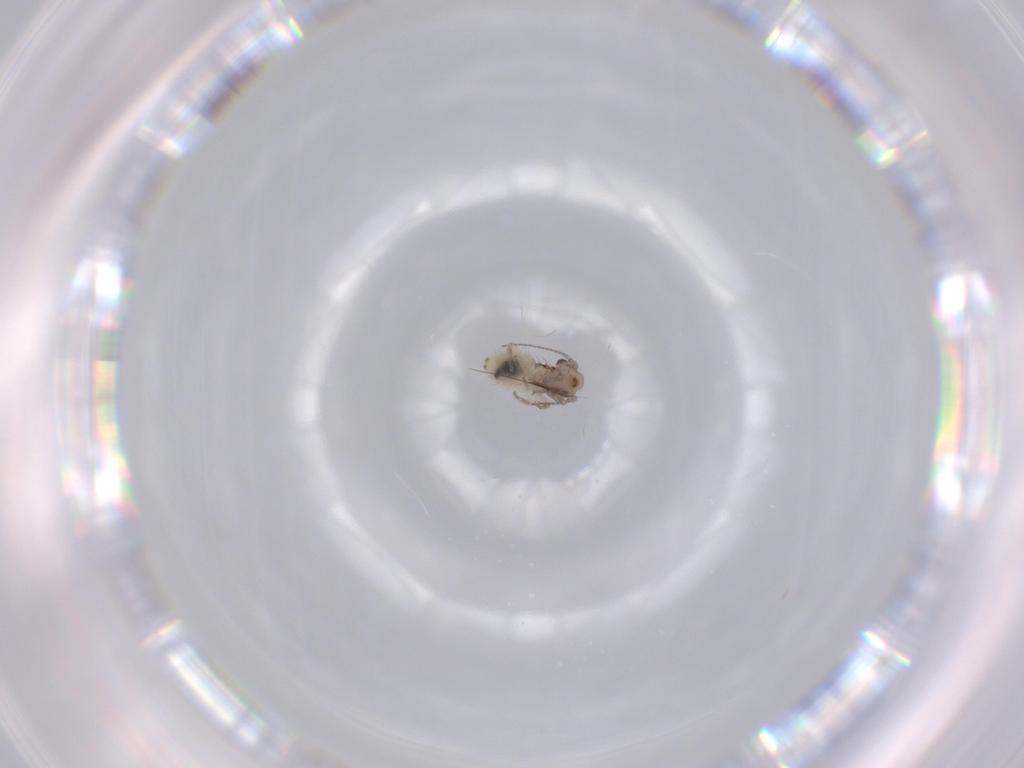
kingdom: Animalia
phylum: Arthropoda
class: Insecta
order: Psocodea
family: Lepidopsocidae
